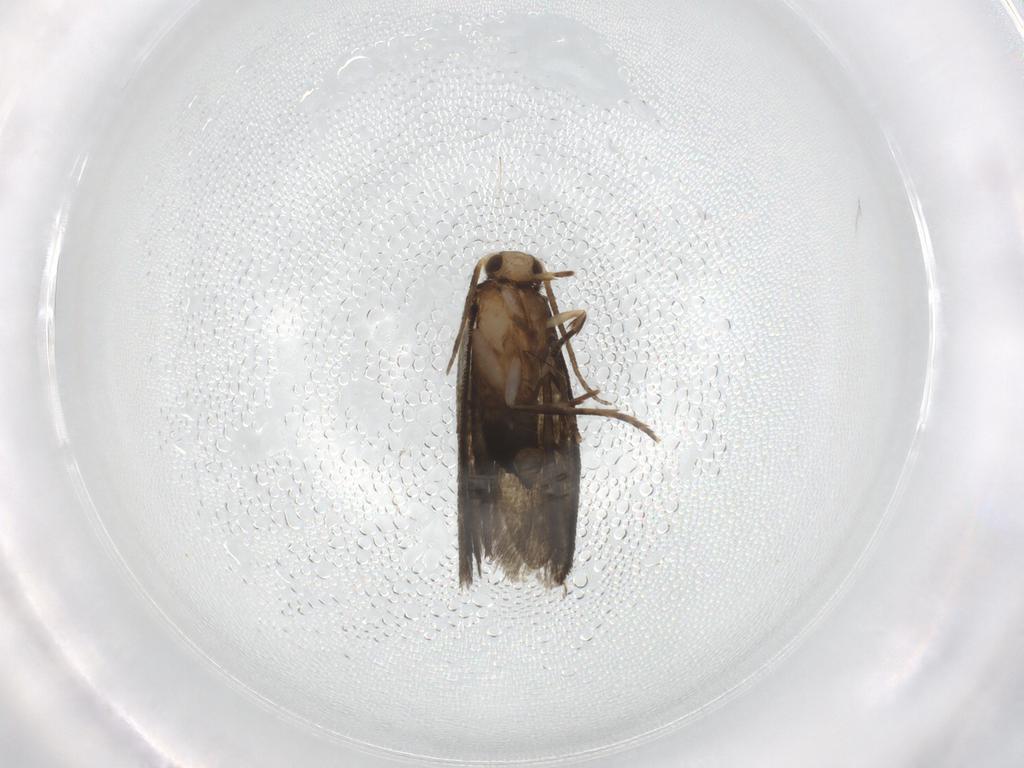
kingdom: Animalia
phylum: Arthropoda
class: Insecta
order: Lepidoptera
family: Tineidae
